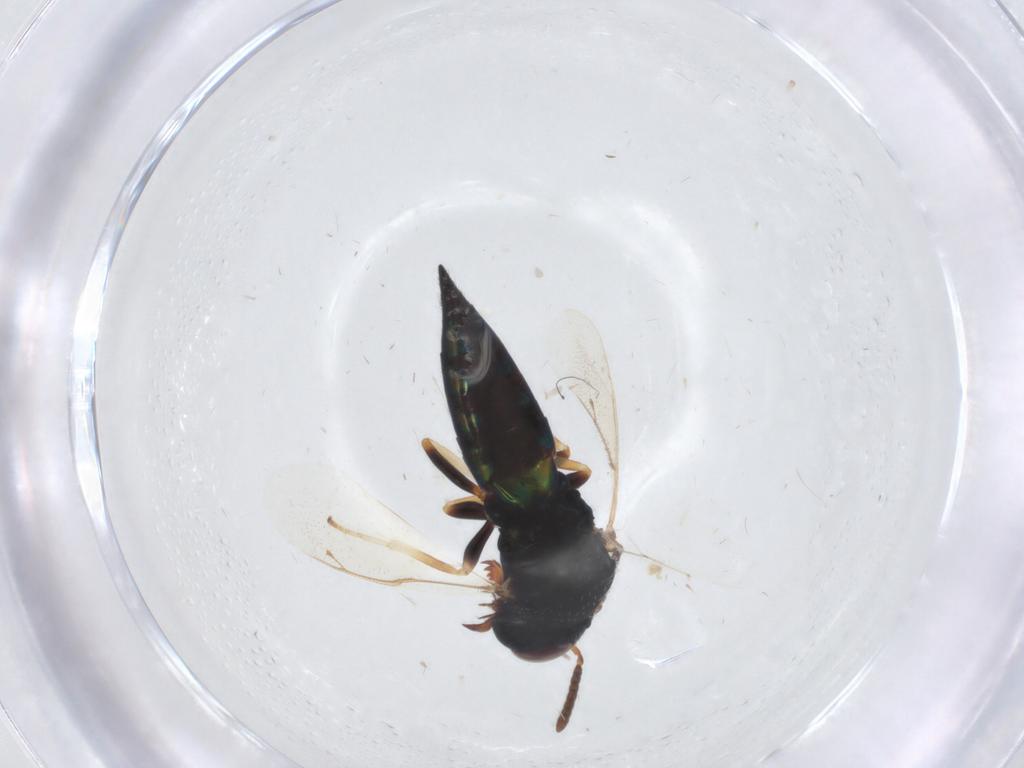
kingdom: Animalia
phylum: Arthropoda
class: Insecta
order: Hymenoptera
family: Pteromalidae
